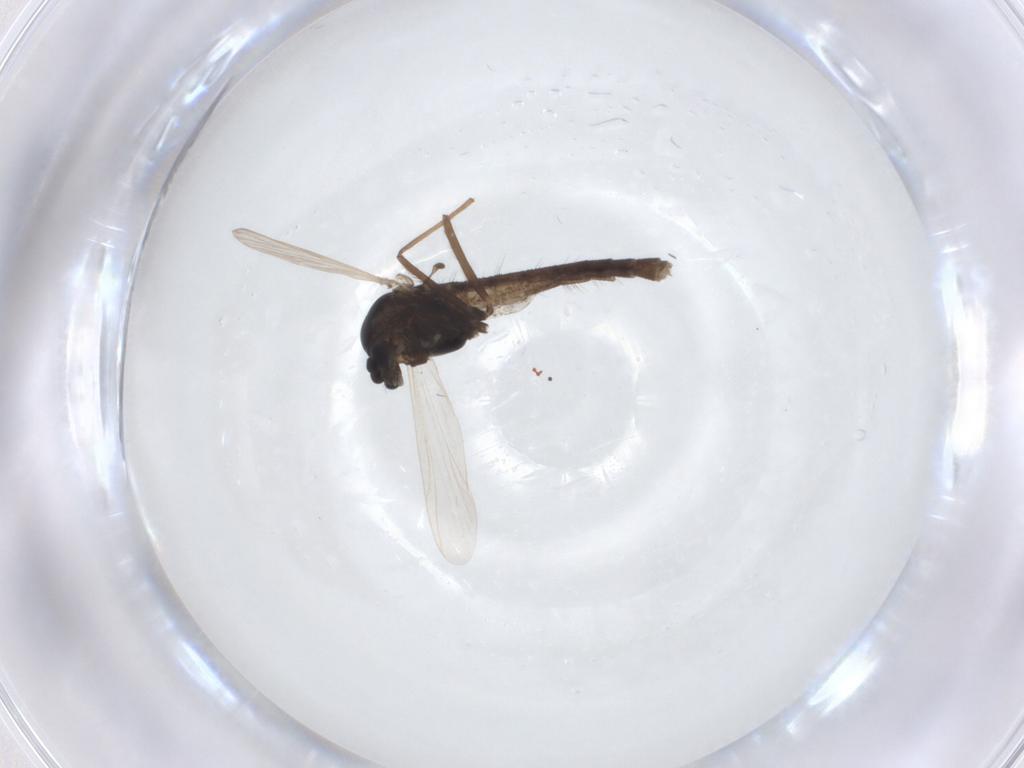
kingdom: Animalia
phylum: Arthropoda
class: Insecta
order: Diptera
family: Chironomidae
